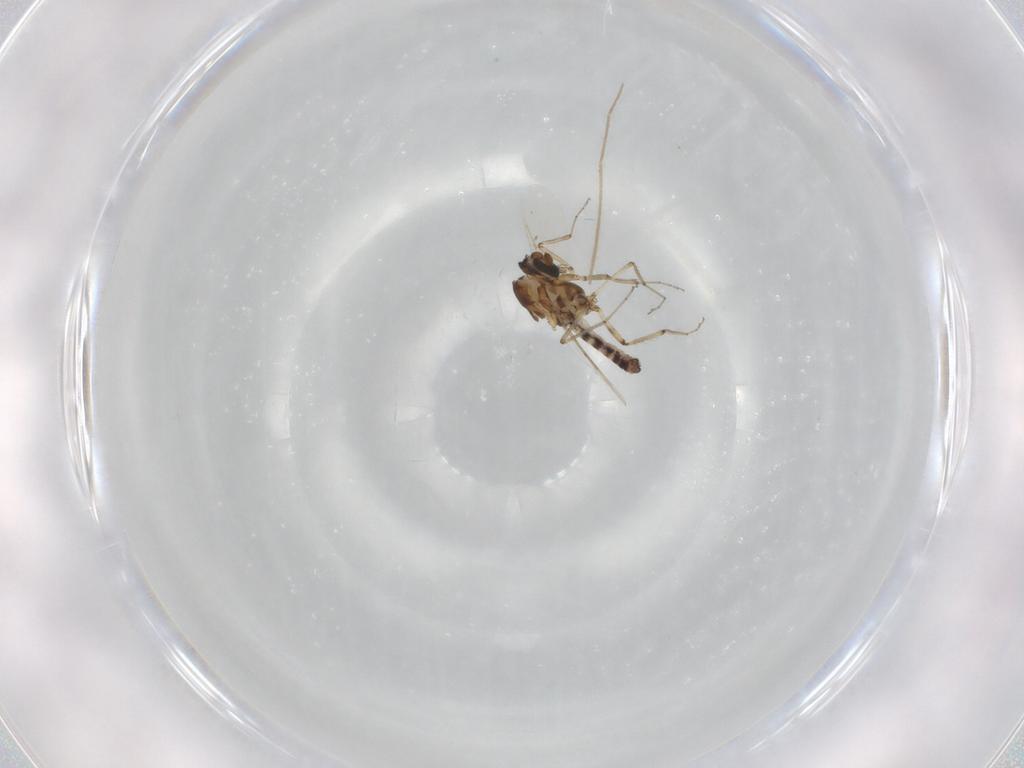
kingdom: Animalia
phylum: Arthropoda
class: Insecta
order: Diptera
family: Ceratopogonidae
